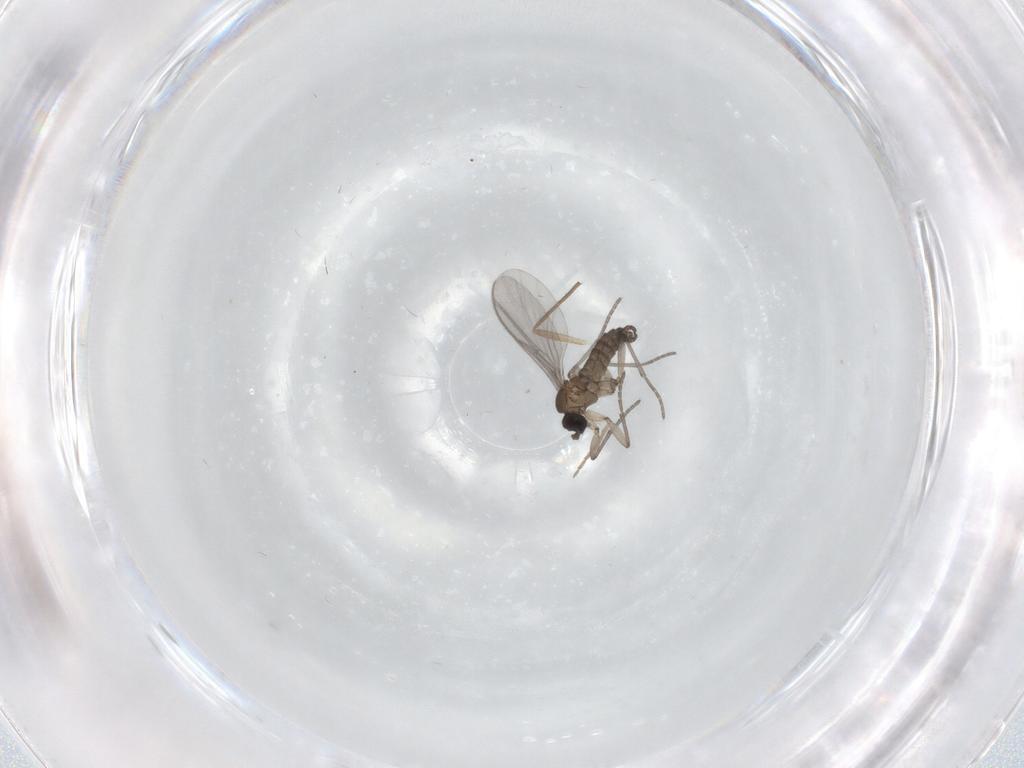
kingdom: Animalia
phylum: Arthropoda
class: Insecta
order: Diptera
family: Chironomidae
